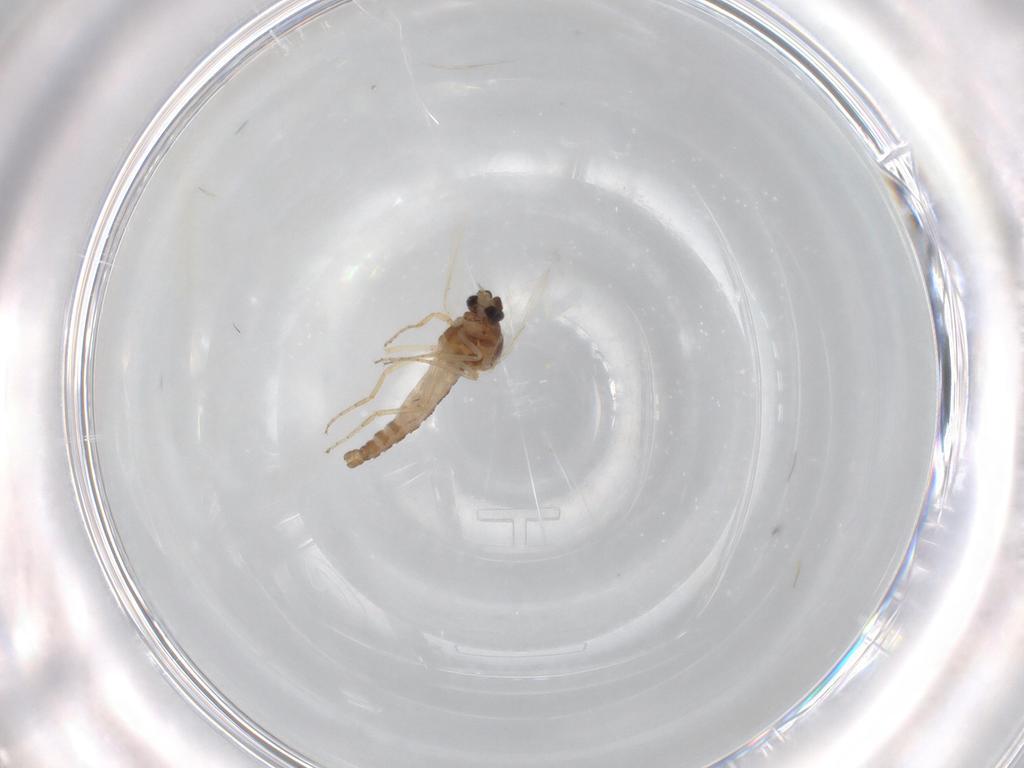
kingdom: Animalia
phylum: Arthropoda
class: Insecta
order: Diptera
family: Ceratopogonidae
